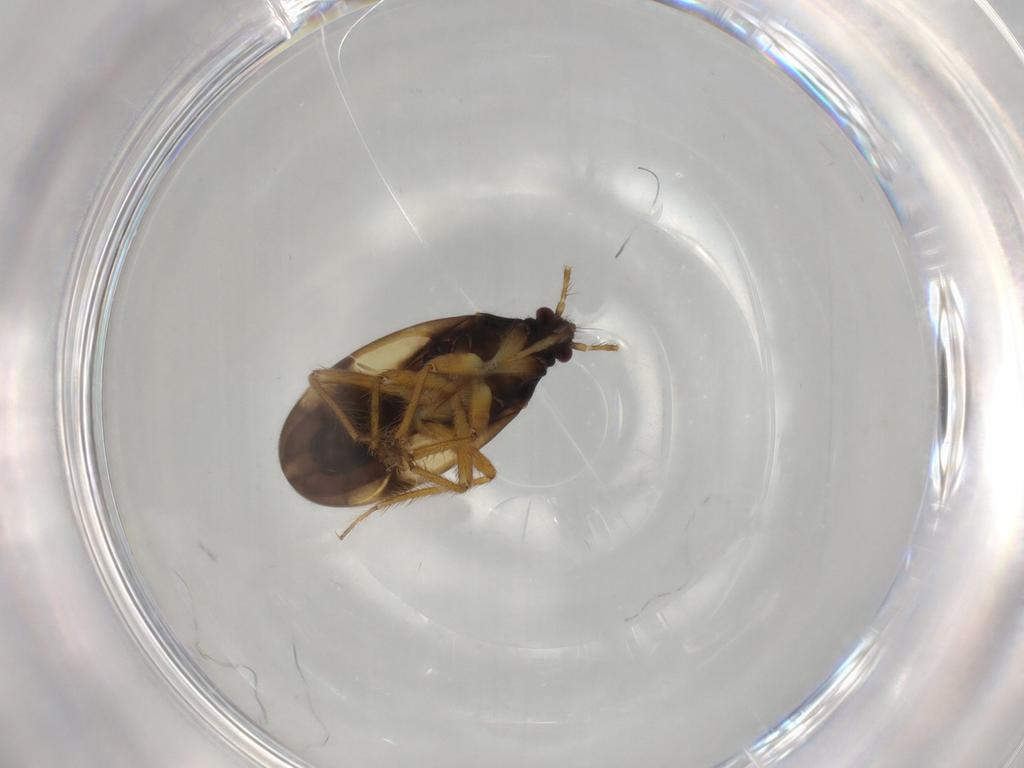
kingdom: Animalia
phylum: Arthropoda
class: Insecta
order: Hemiptera
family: Ceratocombidae
